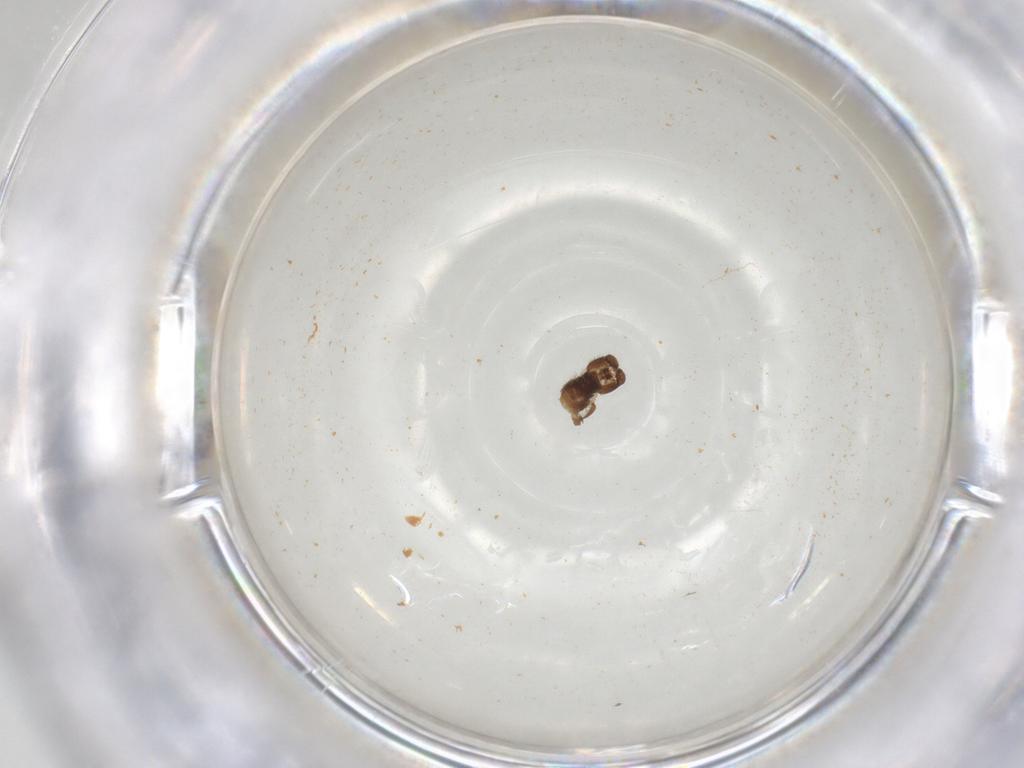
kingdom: Animalia
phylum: Arthropoda
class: Insecta
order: Diptera
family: Sciaridae
